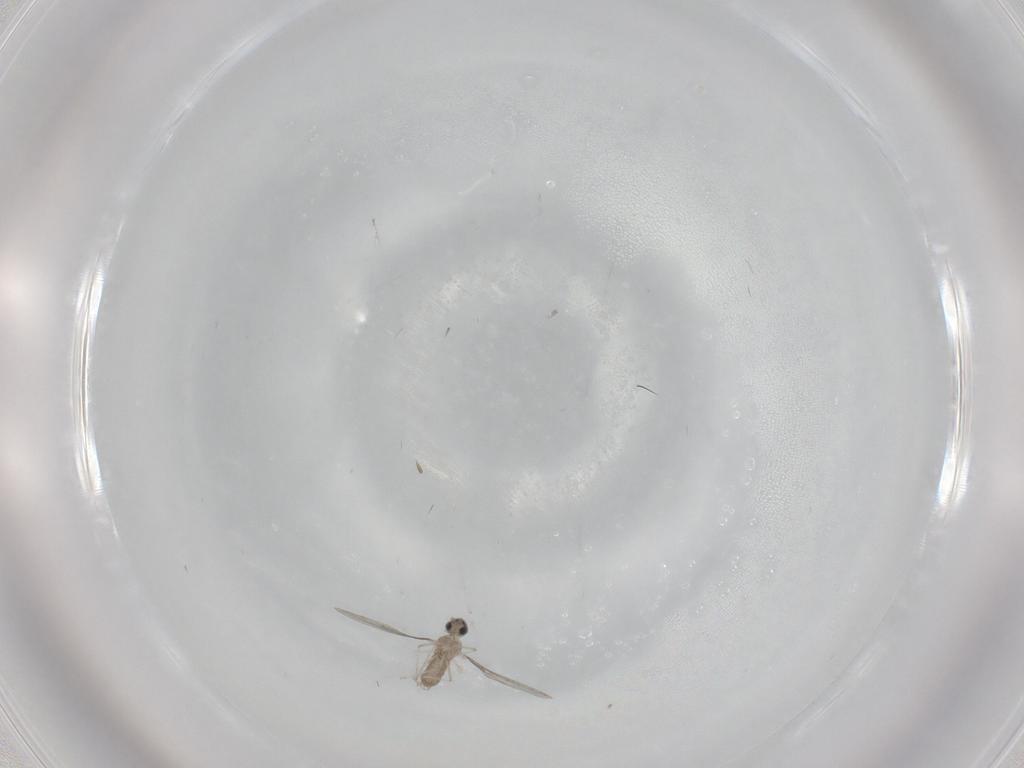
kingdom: Animalia
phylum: Arthropoda
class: Insecta
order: Diptera
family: Cecidomyiidae
